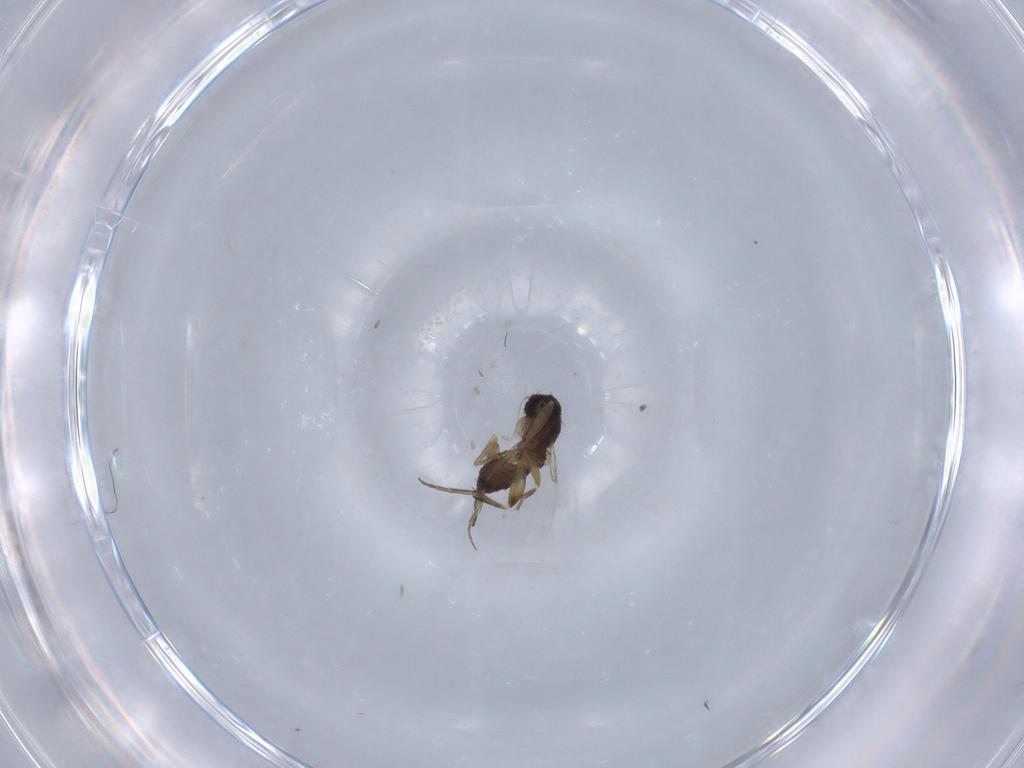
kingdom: Animalia
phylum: Arthropoda
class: Insecta
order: Diptera
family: Phoridae
